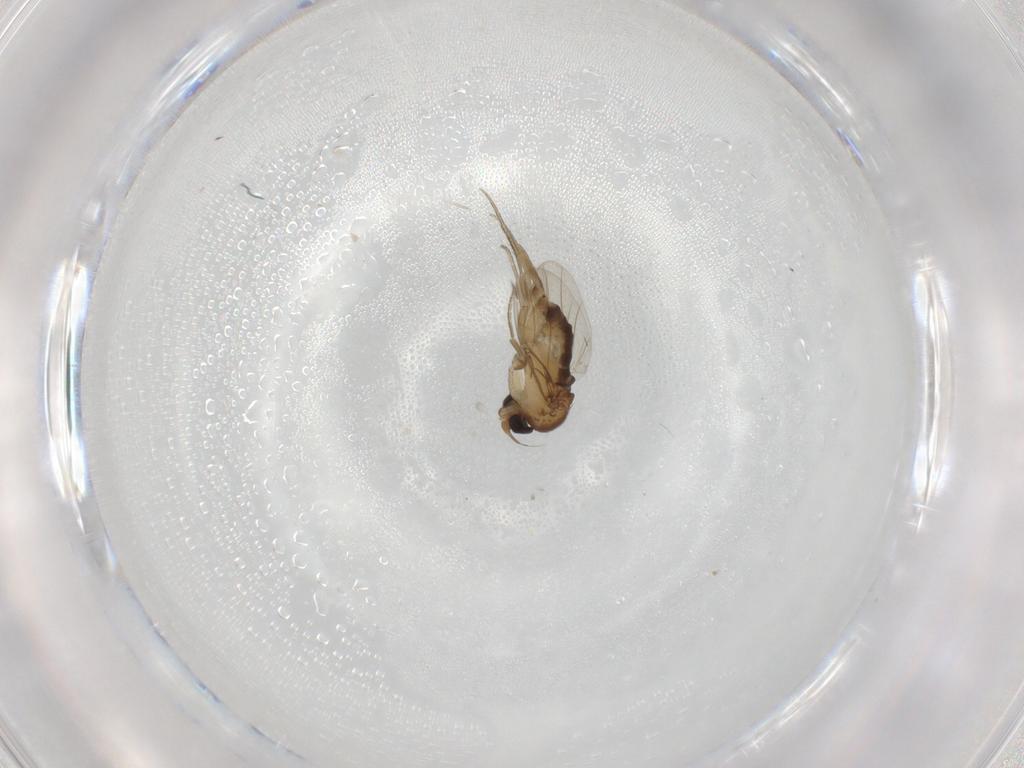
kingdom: Animalia
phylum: Arthropoda
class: Insecta
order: Diptera
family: Phoridae
